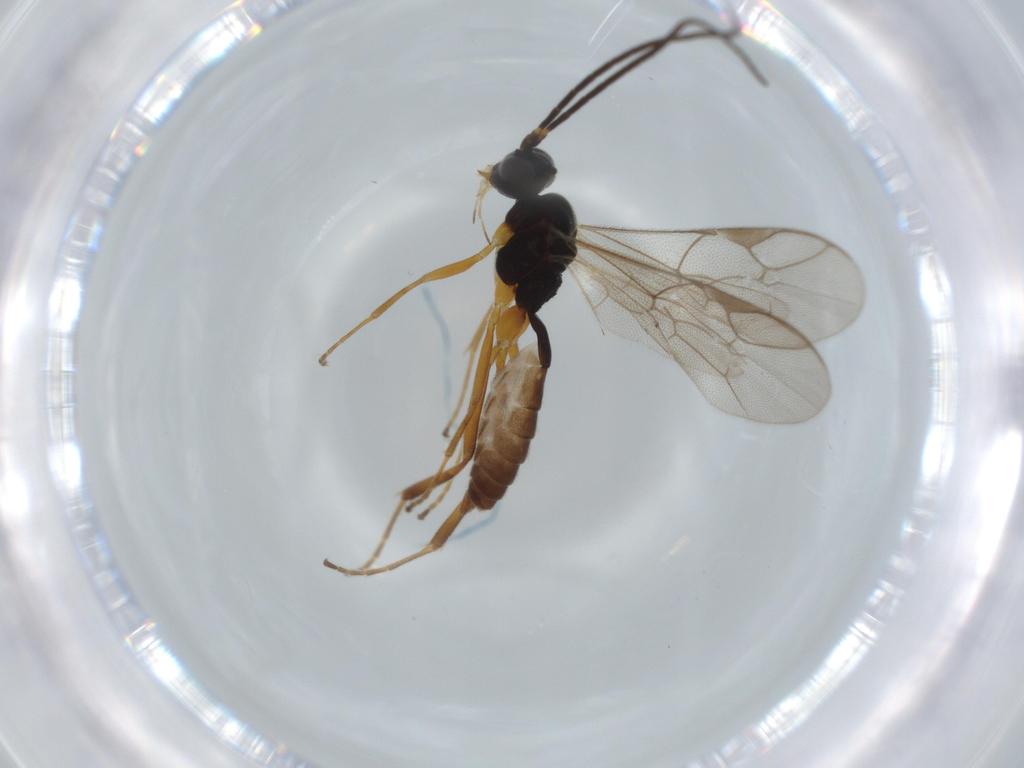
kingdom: Animalia
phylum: Arthropoda
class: Insecta
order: Hymenoptera
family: Ichneumonidae
